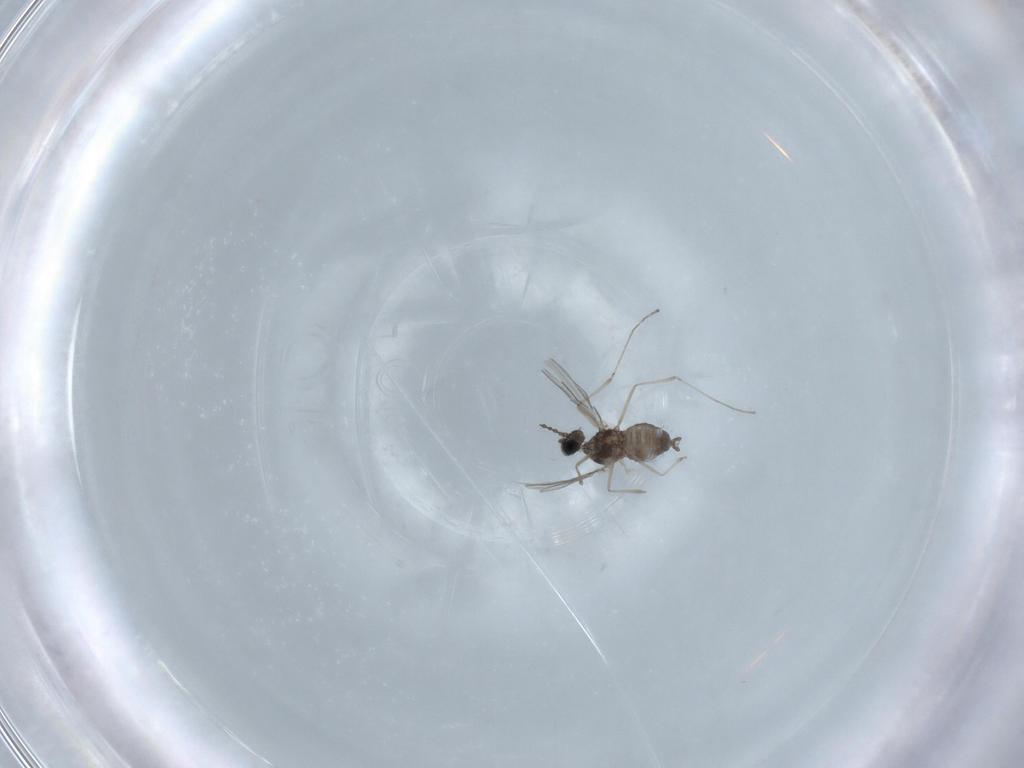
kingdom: Animalia
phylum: Arthropoda
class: Insecta
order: Diptera
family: Cecidomyiidae
